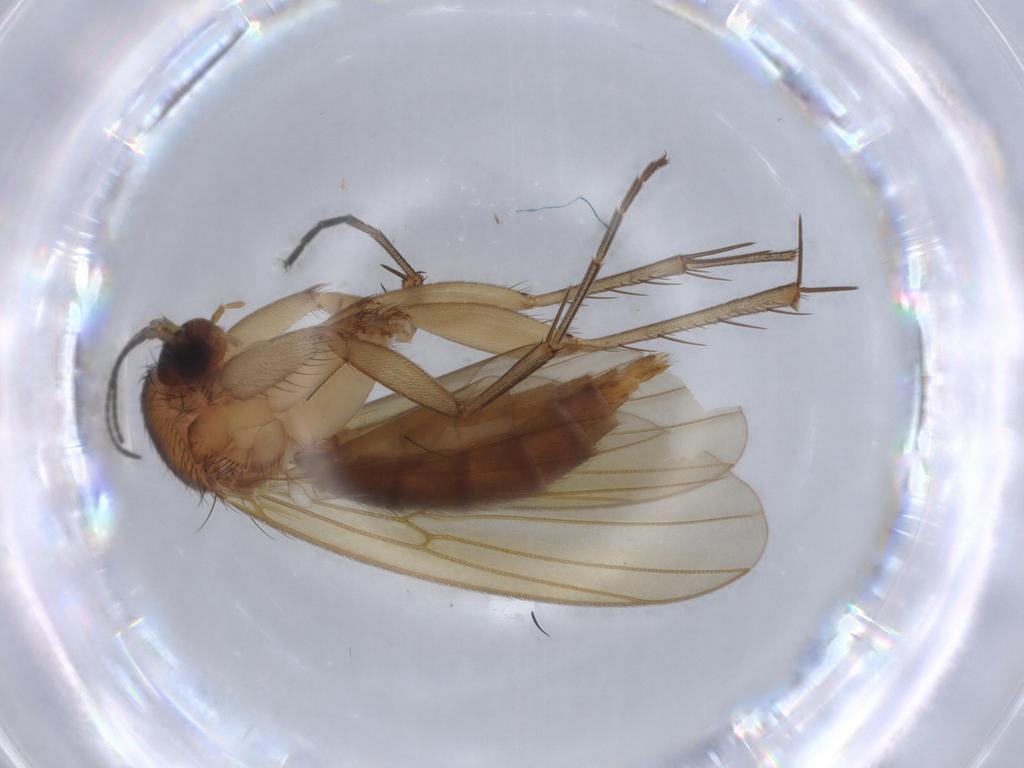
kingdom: Animalia
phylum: Arthropoda
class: Insecta
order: Diptera
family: Mycetophilidae
